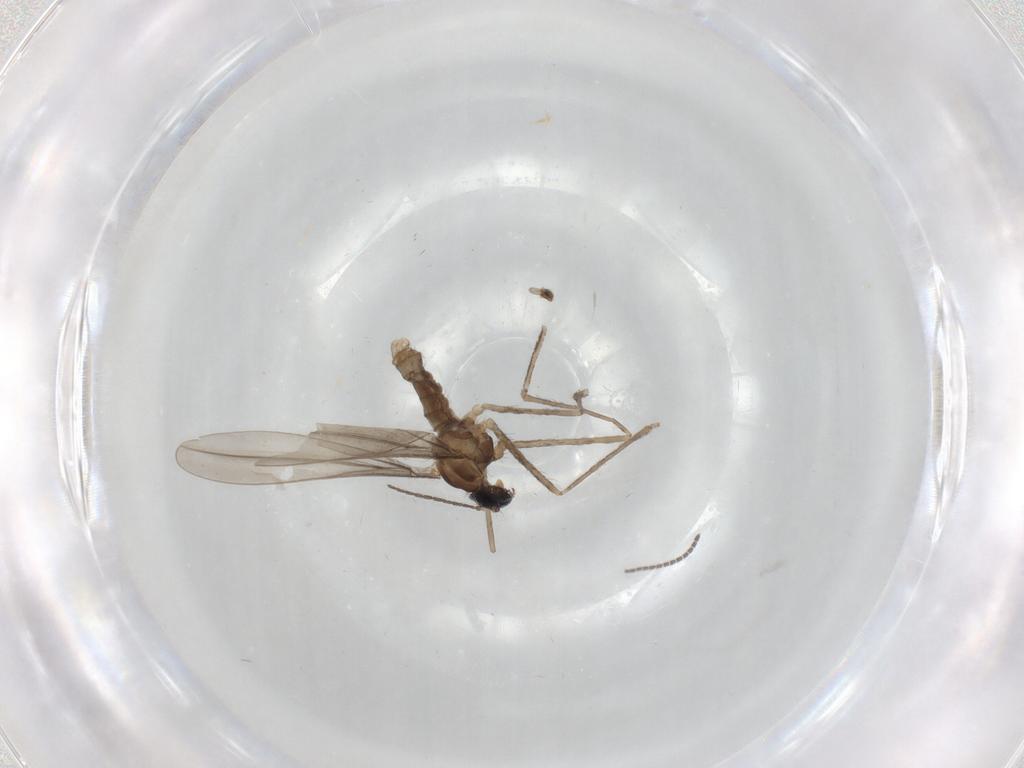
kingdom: Animalia
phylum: Arthropoda
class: Insecta
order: Diptera
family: Cecidomyiidae
